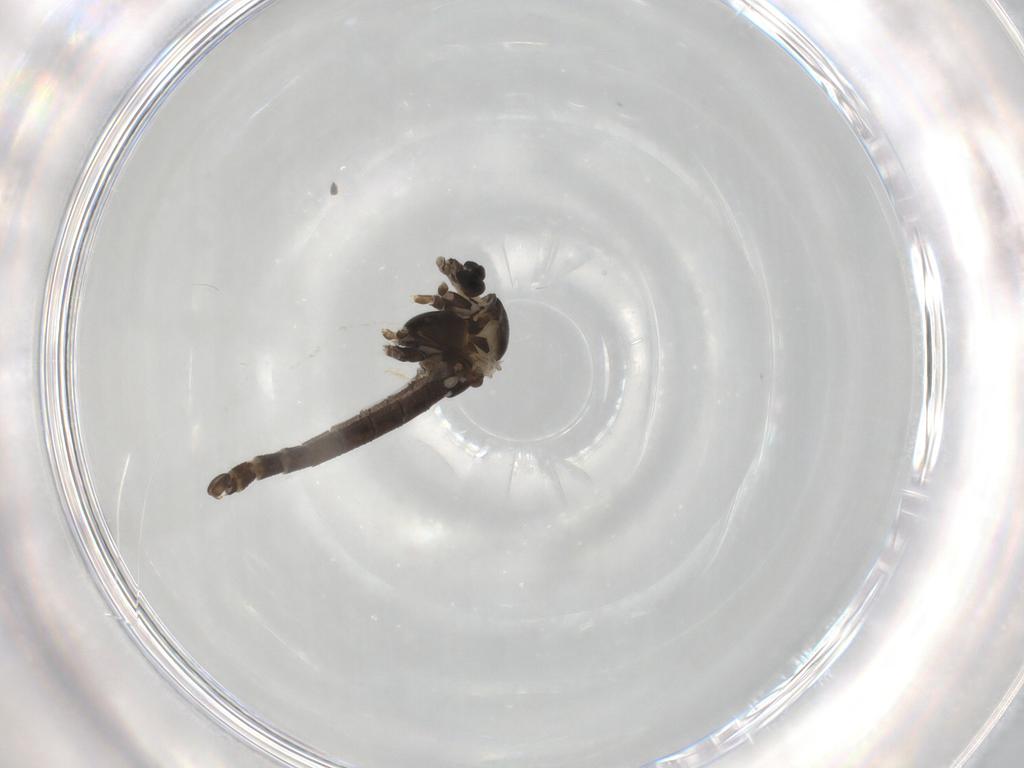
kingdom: Animalia
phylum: Arthropoda
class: Insecta
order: Diptera
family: Chironomidae
